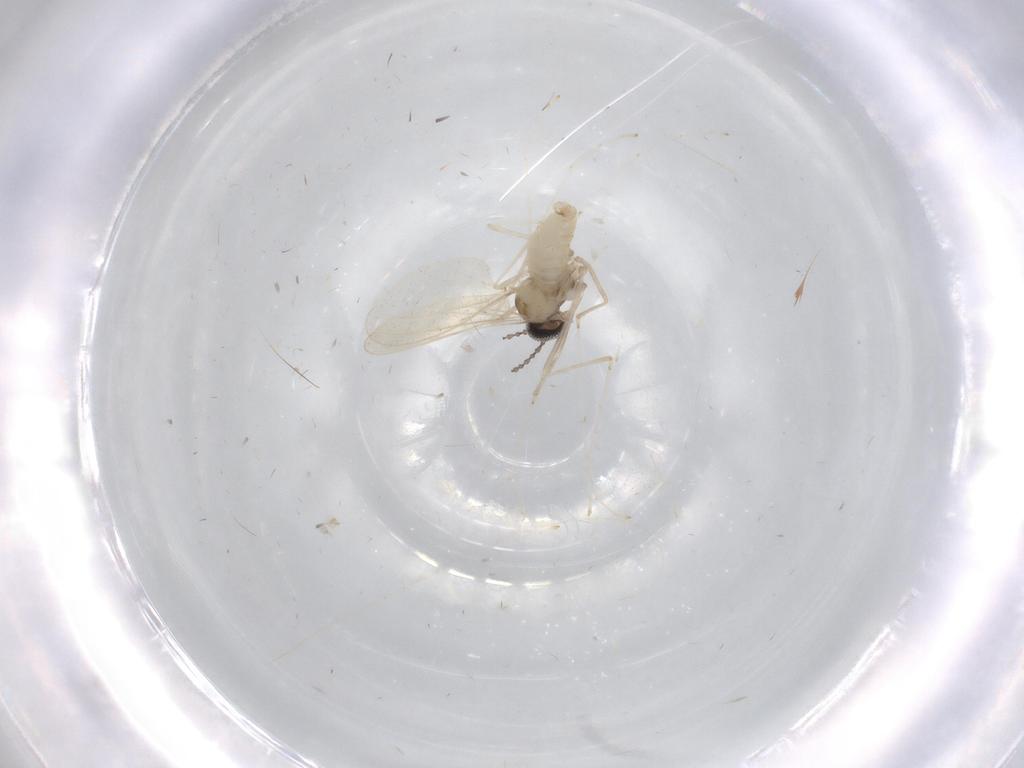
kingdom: Animalia
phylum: Arthropoda
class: Insecta
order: Diptera
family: Cecidomyiidae
